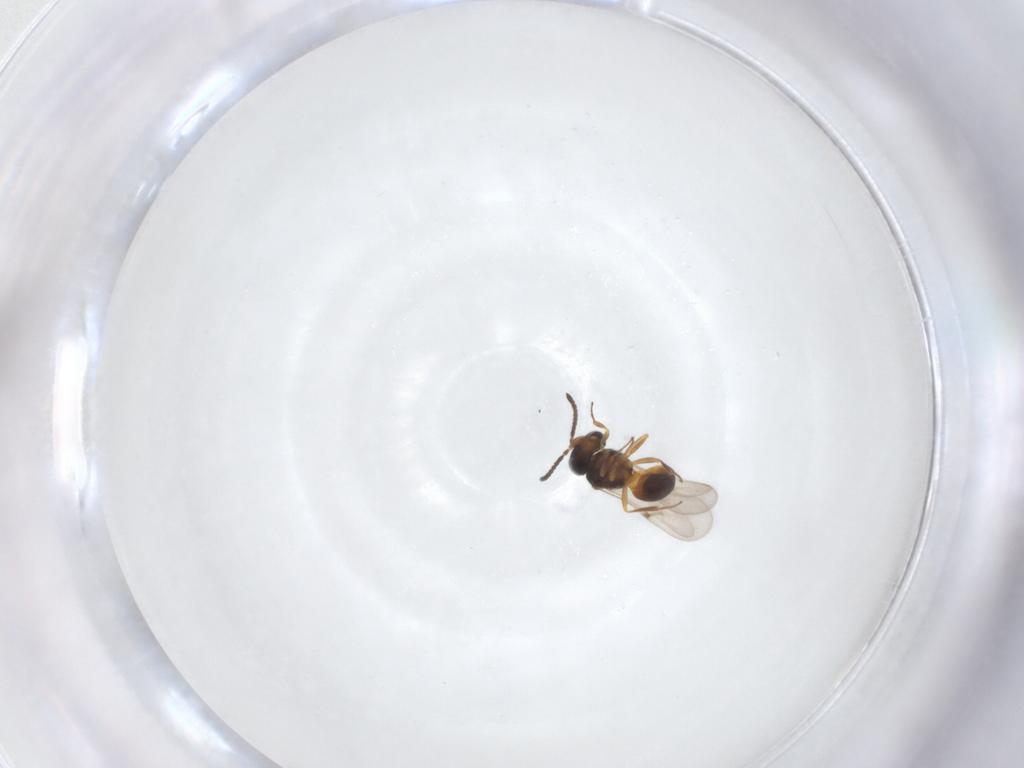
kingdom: Animalia
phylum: Arthropoda
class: Arachnida
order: Araneae
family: Pholcidae
